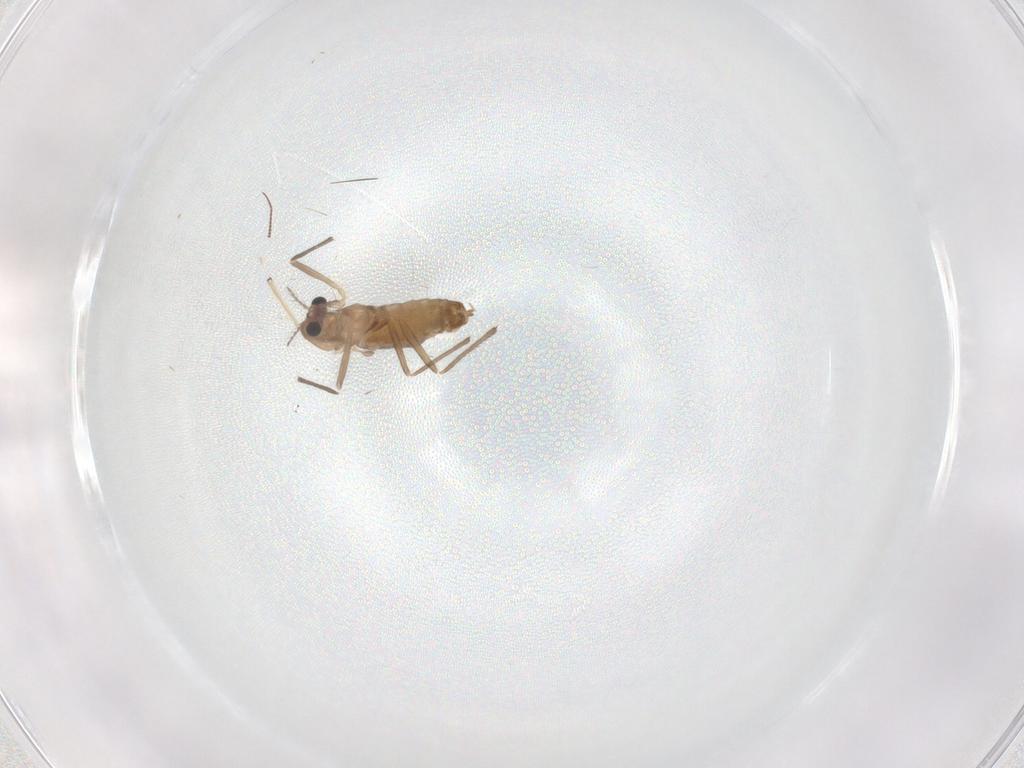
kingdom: Animalia
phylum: Arthropoda
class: Insecta
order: Diptera
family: Chironomidae
